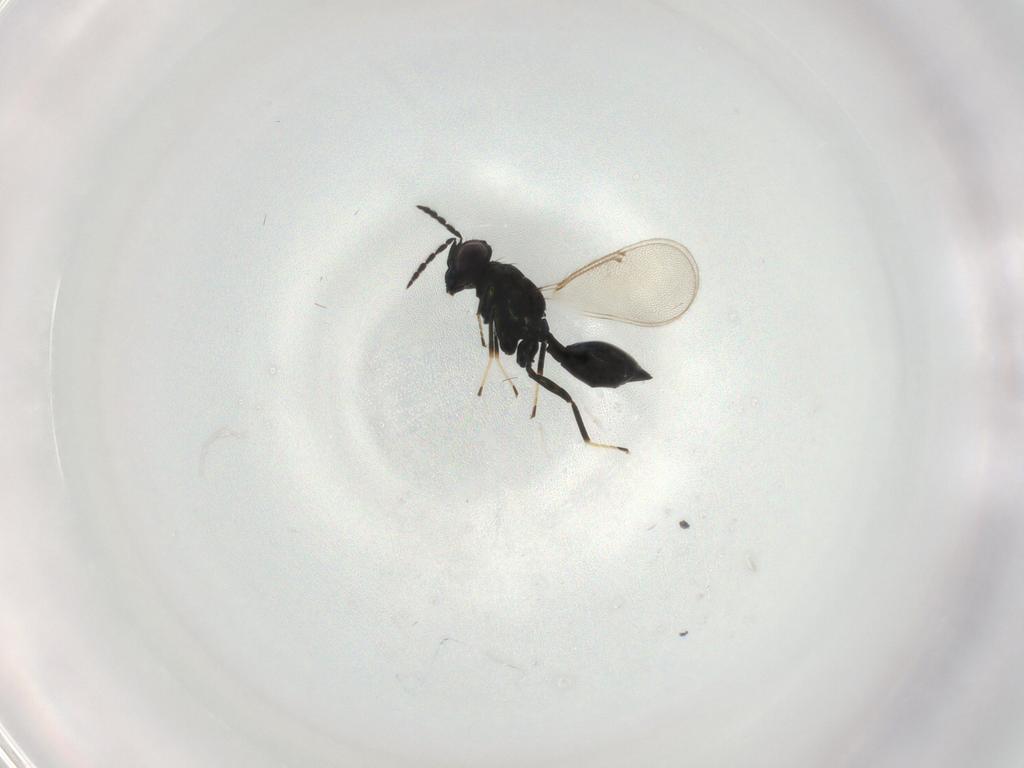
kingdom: Animalia
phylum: Arthropoda
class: Insecta
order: Hymenoptera
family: Eulophidae
